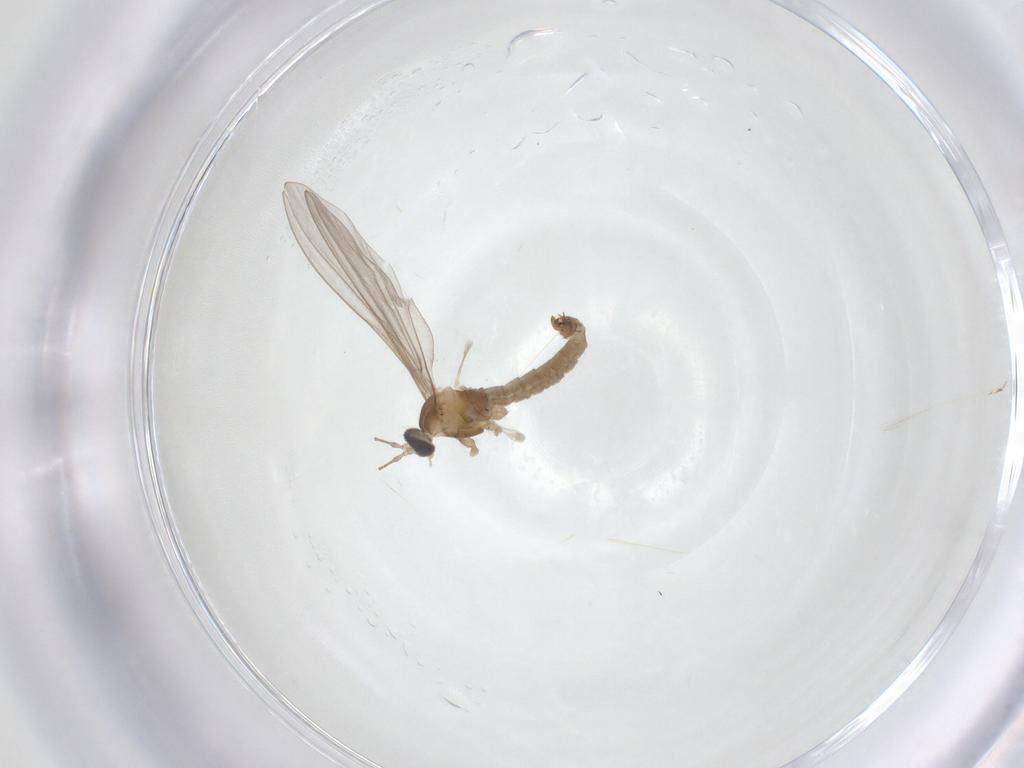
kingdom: Animalia
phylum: Arthropoda
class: Insecta
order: Diptera
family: Cecidomyiidae
